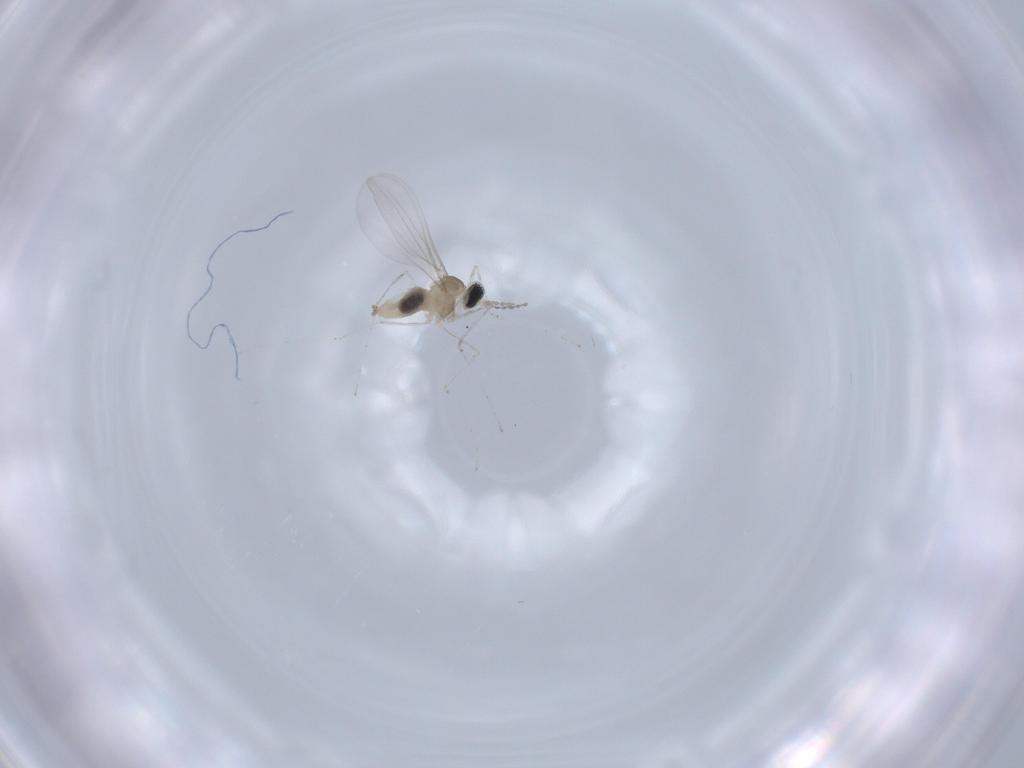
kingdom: Animalia
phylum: Arthropoda
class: Insecta
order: Diptera
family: Cecidomyiidae
